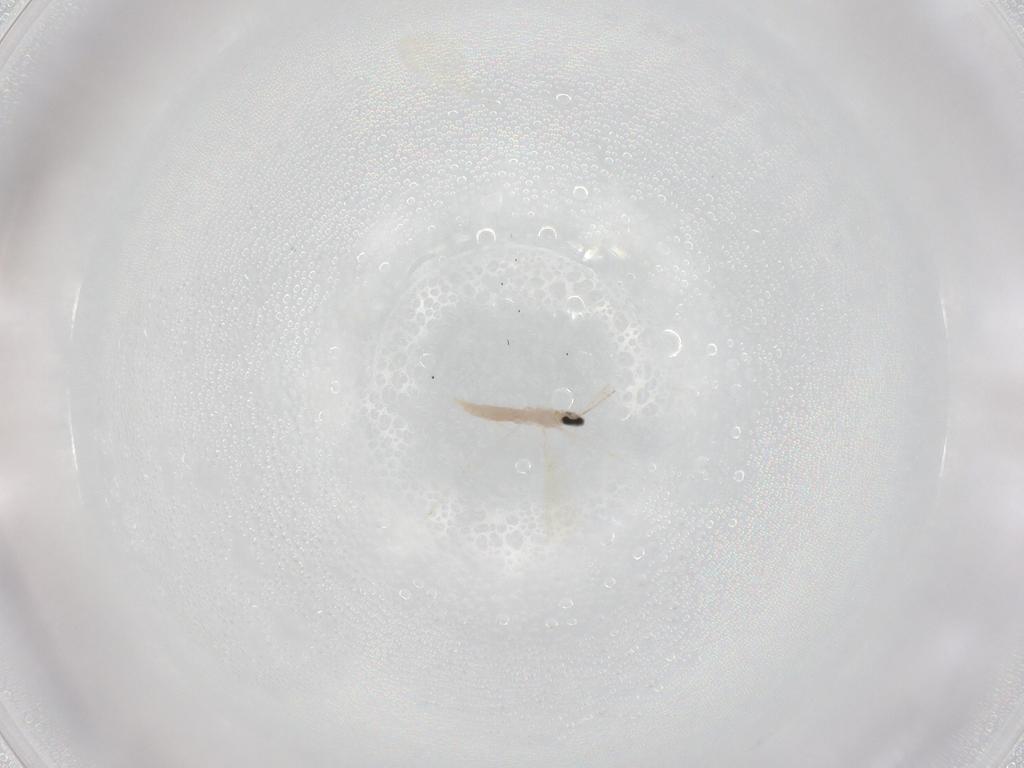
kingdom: Animalia
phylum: Arthropoda
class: Insecta
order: Diptera
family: Cecidomyiidae
